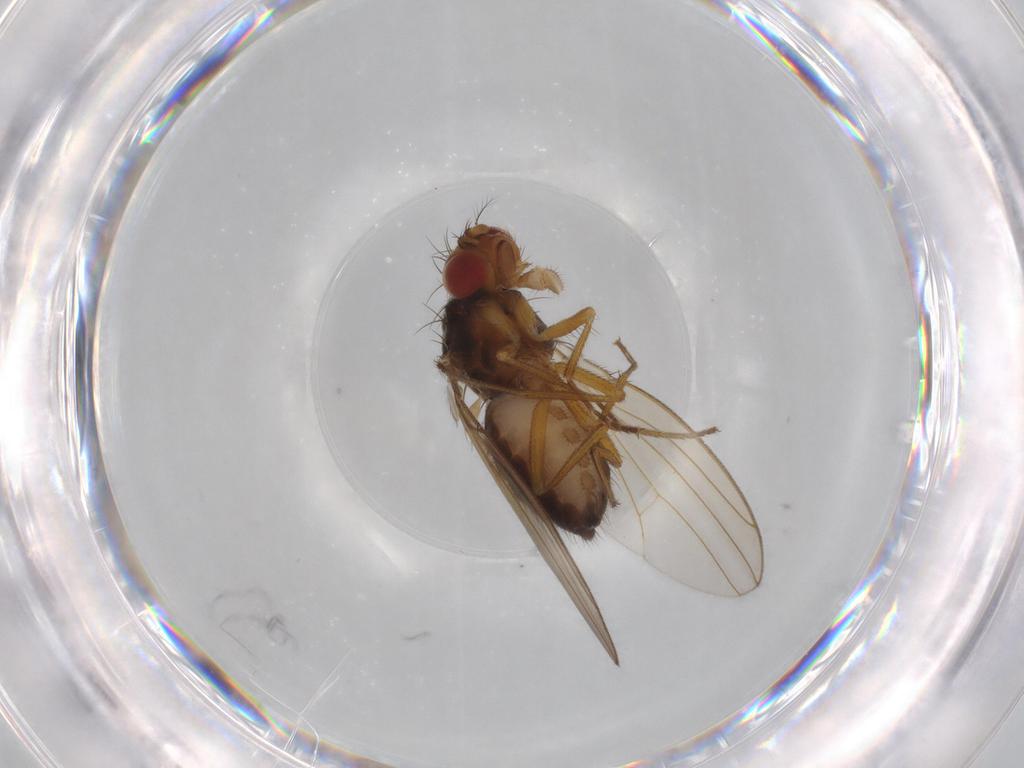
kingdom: Animalia
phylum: Arthropoda
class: Insecta
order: Diptera
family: Drosophilidae
